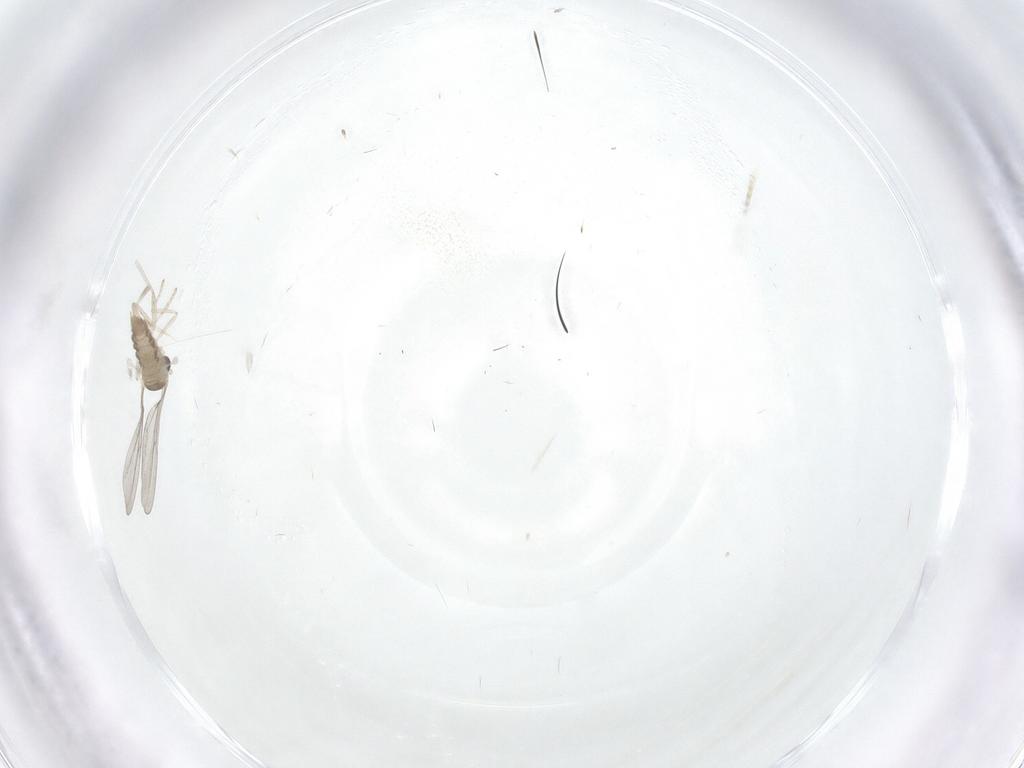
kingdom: Animalia
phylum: Arthropoda
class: Insecta
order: Diptera
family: Cecidomyiidae
